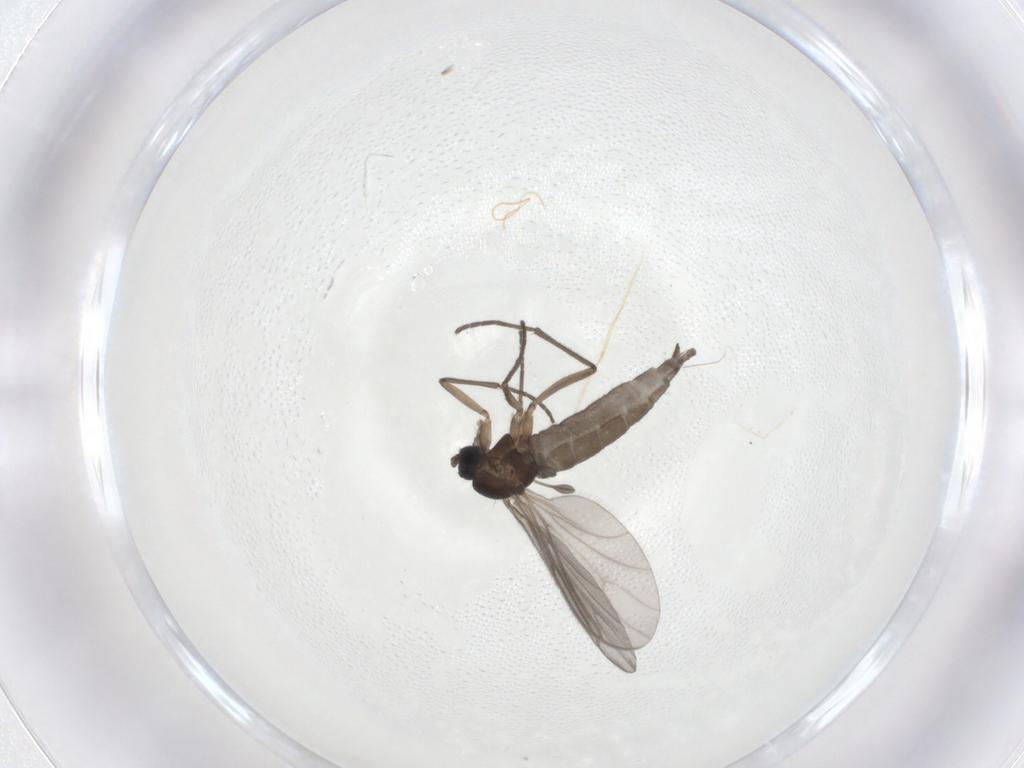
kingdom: Animalia
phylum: Arthropoda
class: Insecta
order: Diptera
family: Sciaridae
